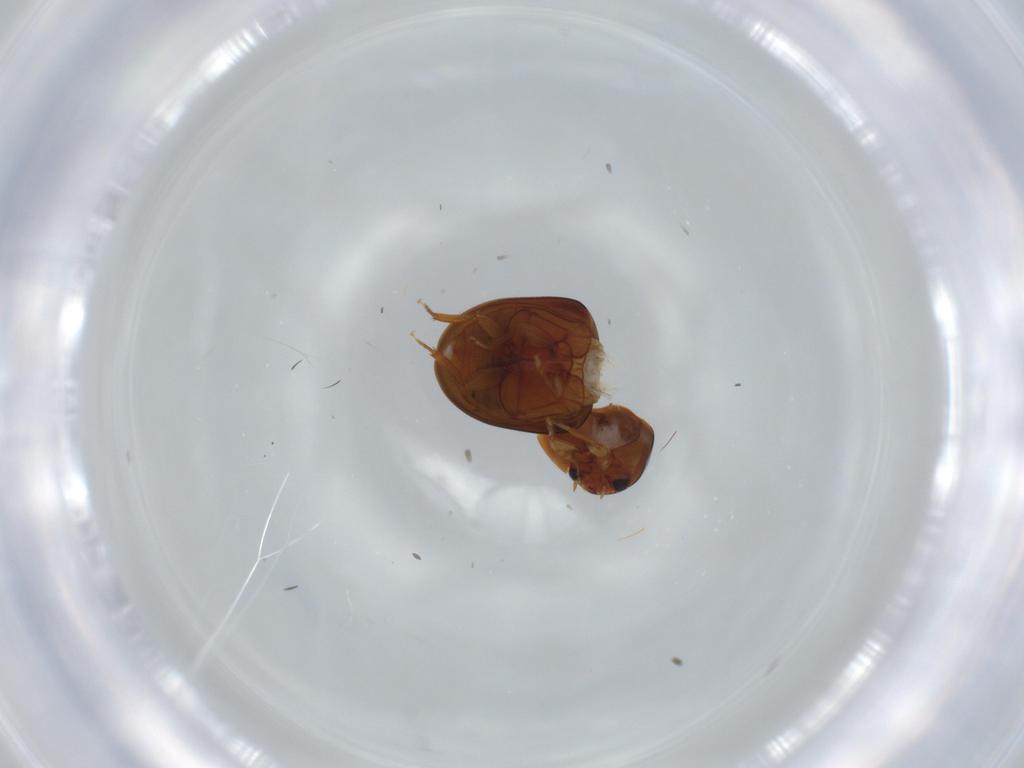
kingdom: Animalia
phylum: Arthropoda
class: Insecta
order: Coleoptera
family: Phalacridae
